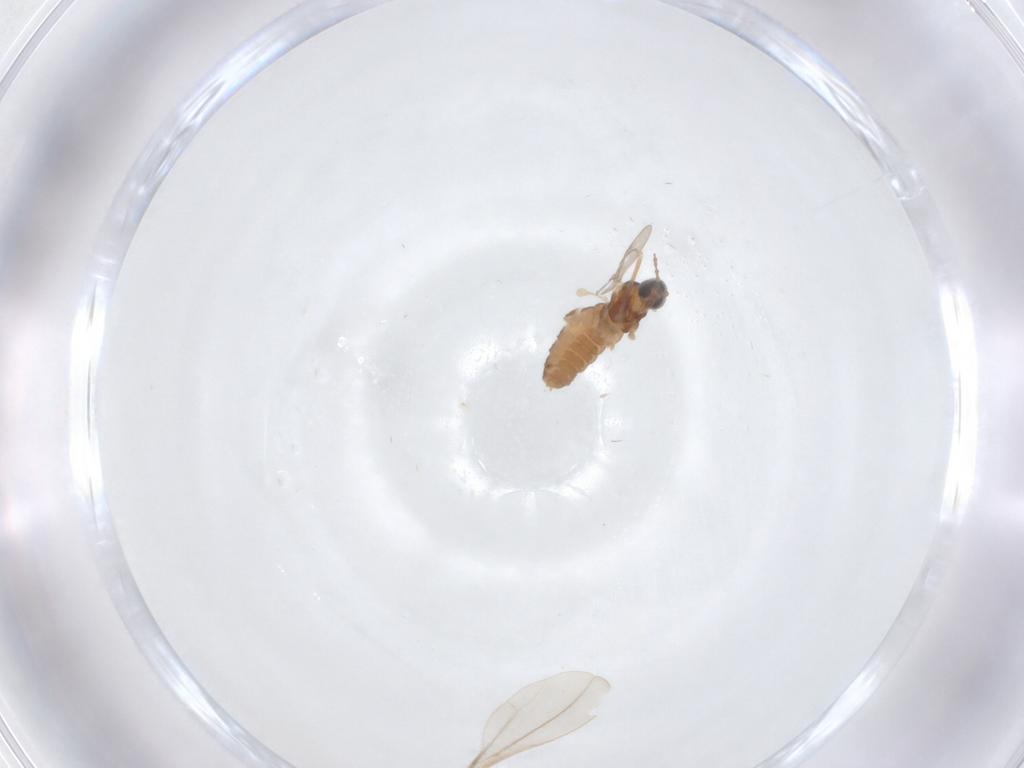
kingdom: Animalia
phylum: Arthropoda
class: Insecta
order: Diptera
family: Cecidomyiidae
